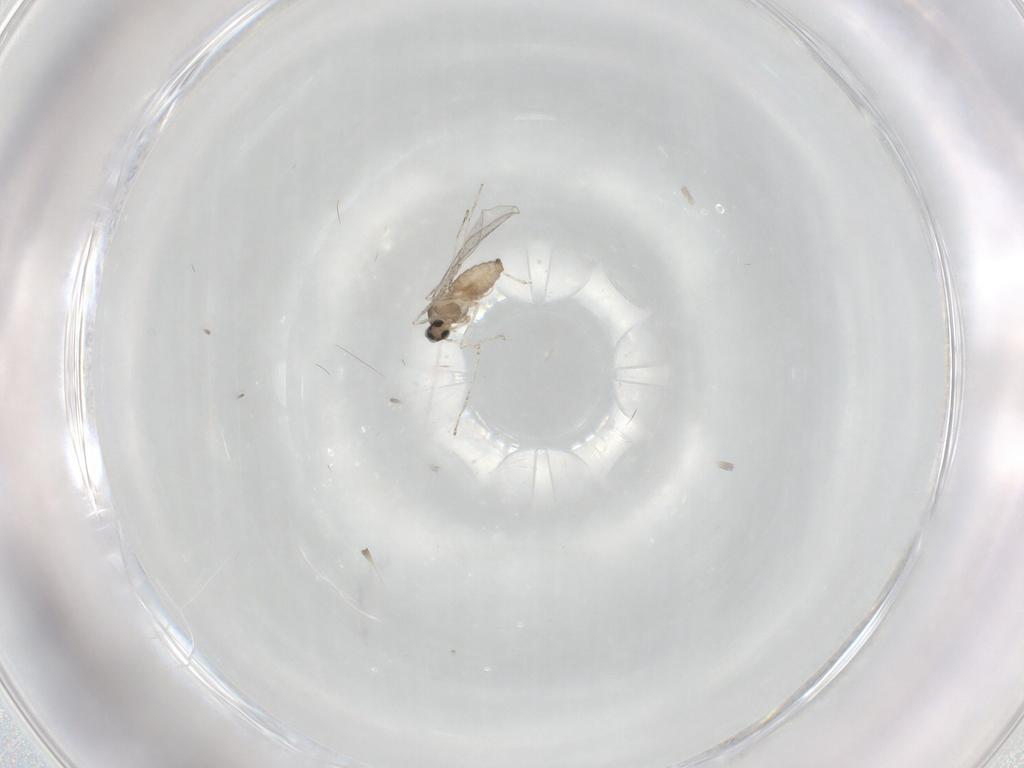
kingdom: Animalia
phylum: Arthropoda
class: Insecta
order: Diptera
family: Cecidomyiidae
